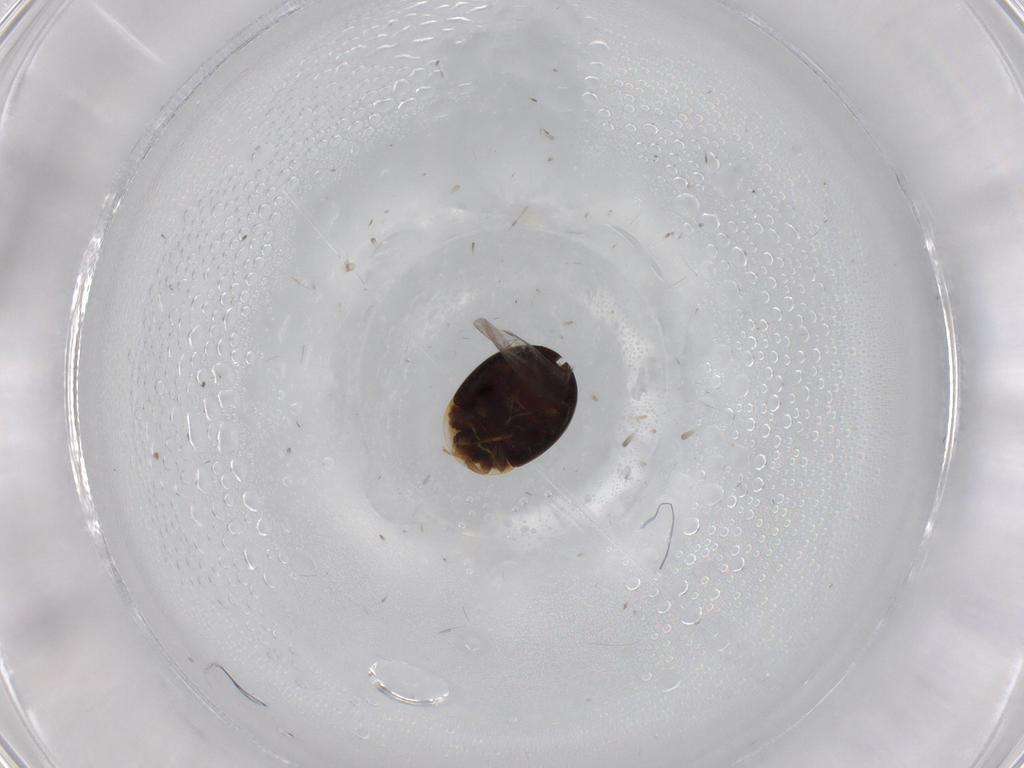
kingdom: Animalia
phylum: Arthropoda
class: Insecta
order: Coleoptera
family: Corylophidae
